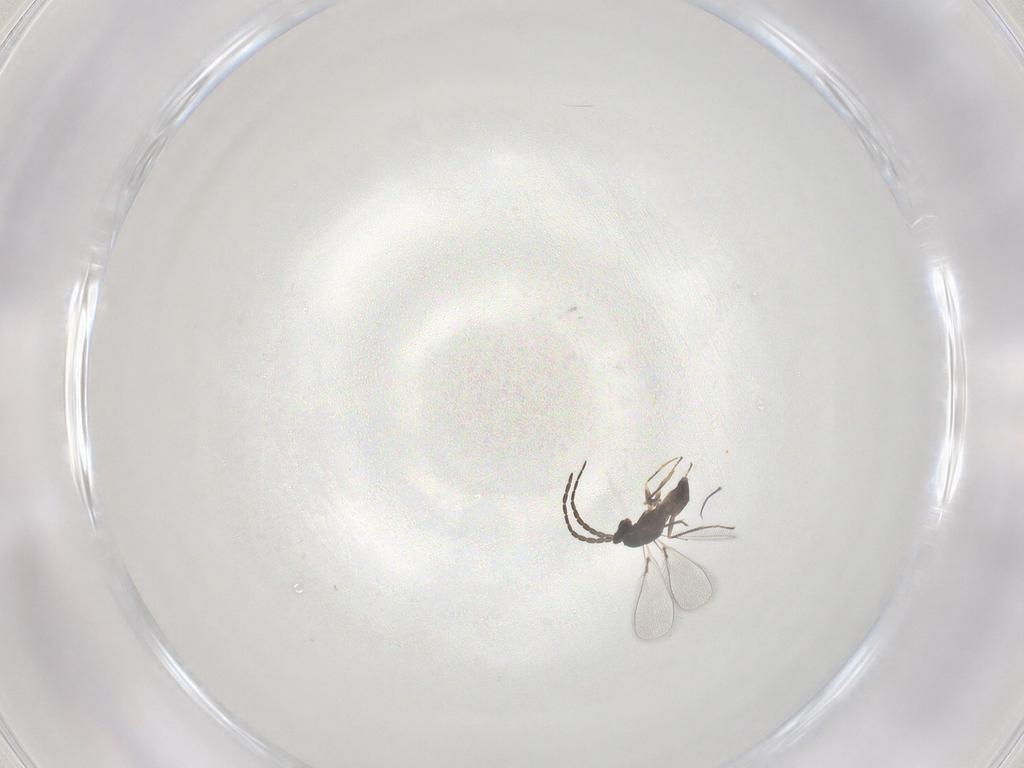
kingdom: Animalia
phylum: Arthropoda
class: Insecta
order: Hymenoptera
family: Mymaridae
